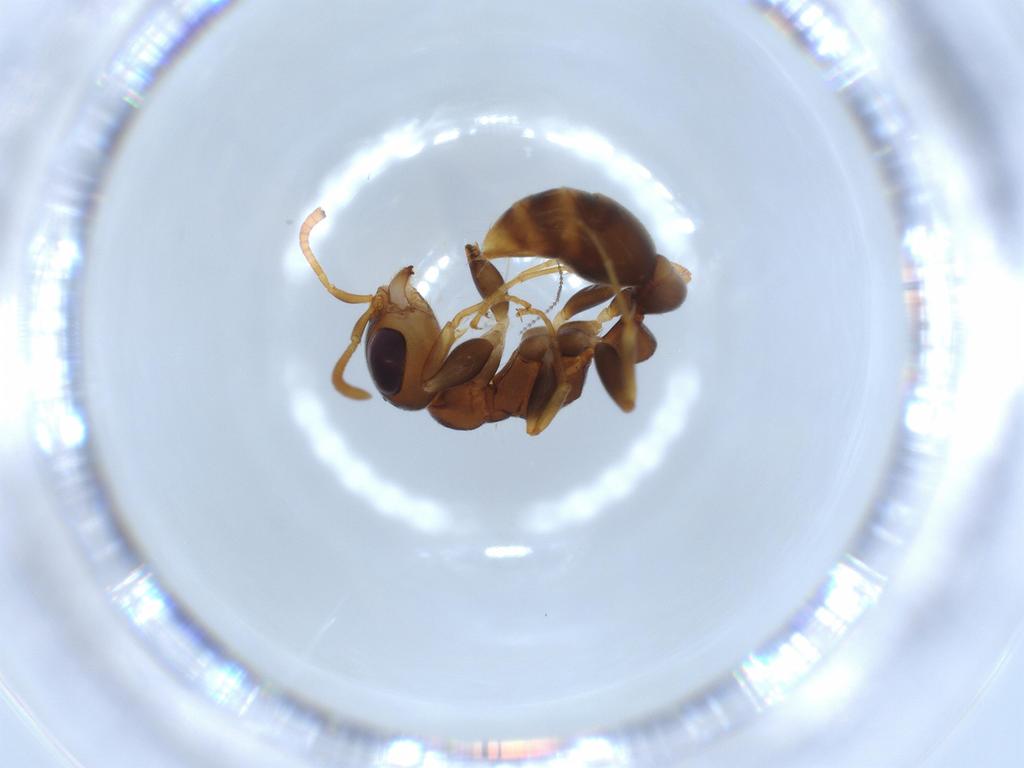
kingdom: Animalia
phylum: Arthropoda
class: Insecta
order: Hymenoptera
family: Formicidae
